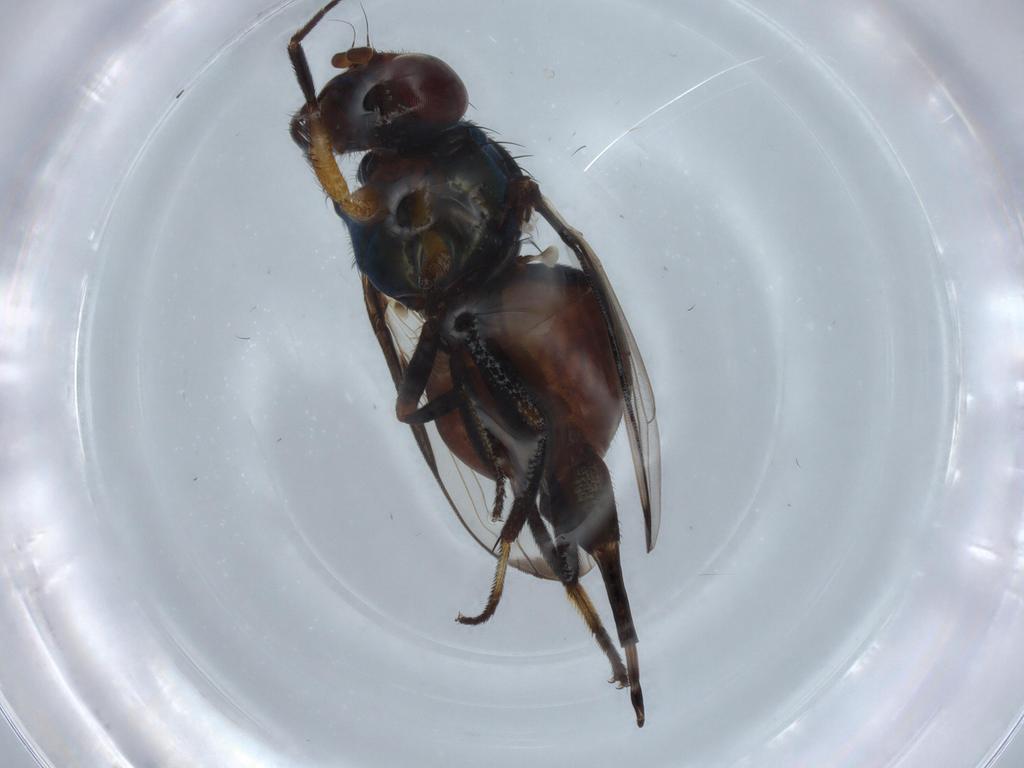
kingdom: Animalia
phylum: Arthropoda
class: Insecta
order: Diptera
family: Ulidiidae
